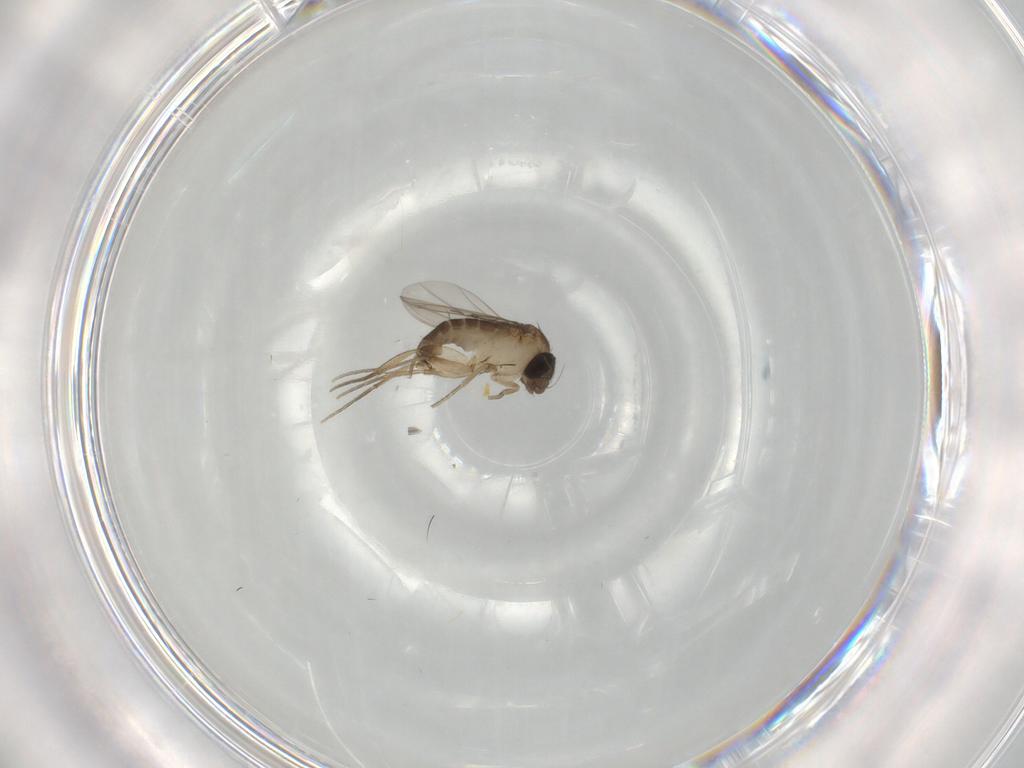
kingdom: Animalia
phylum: Arthropoda
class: Insecta
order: Diptera
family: Phoridae
